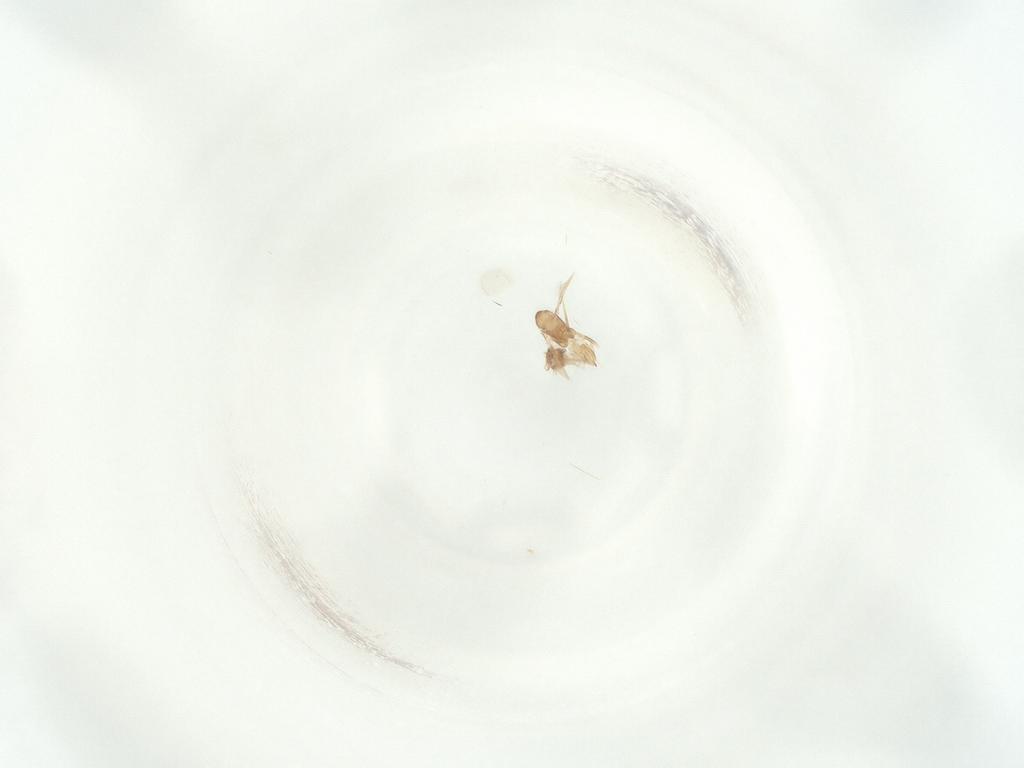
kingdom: Animalia
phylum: Arthropoda
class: Insecta
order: Hymenoptera
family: Mymaridae
